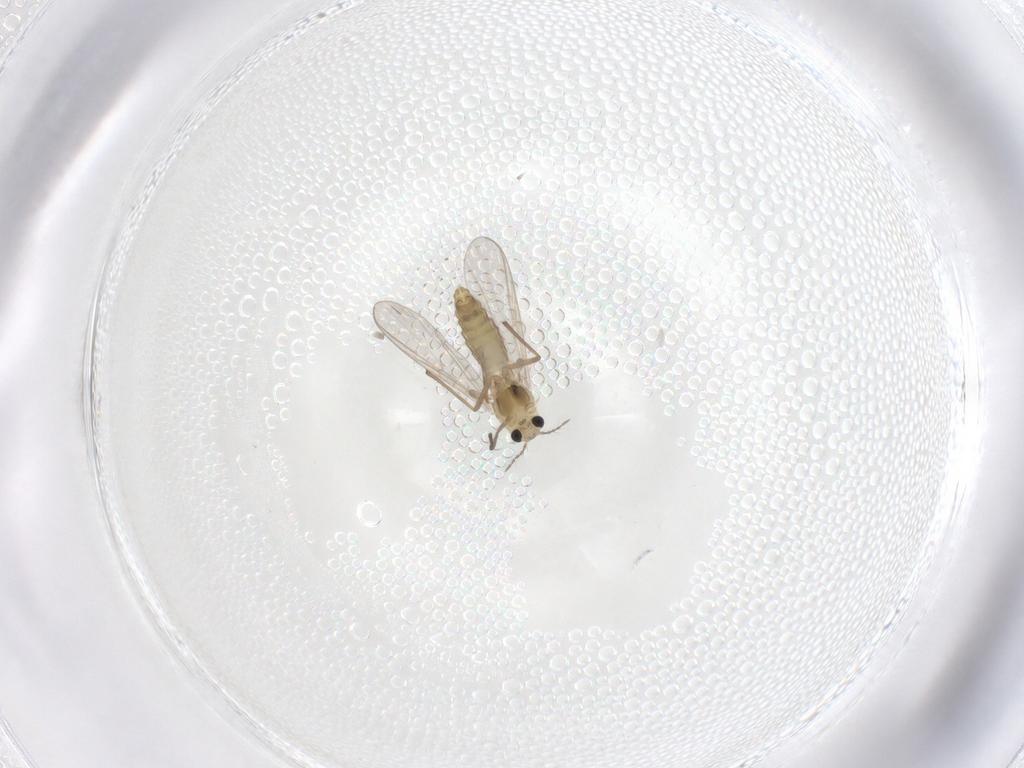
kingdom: Animalia
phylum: Arthropoda
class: Insecta
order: Diptera
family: Chironomidae
